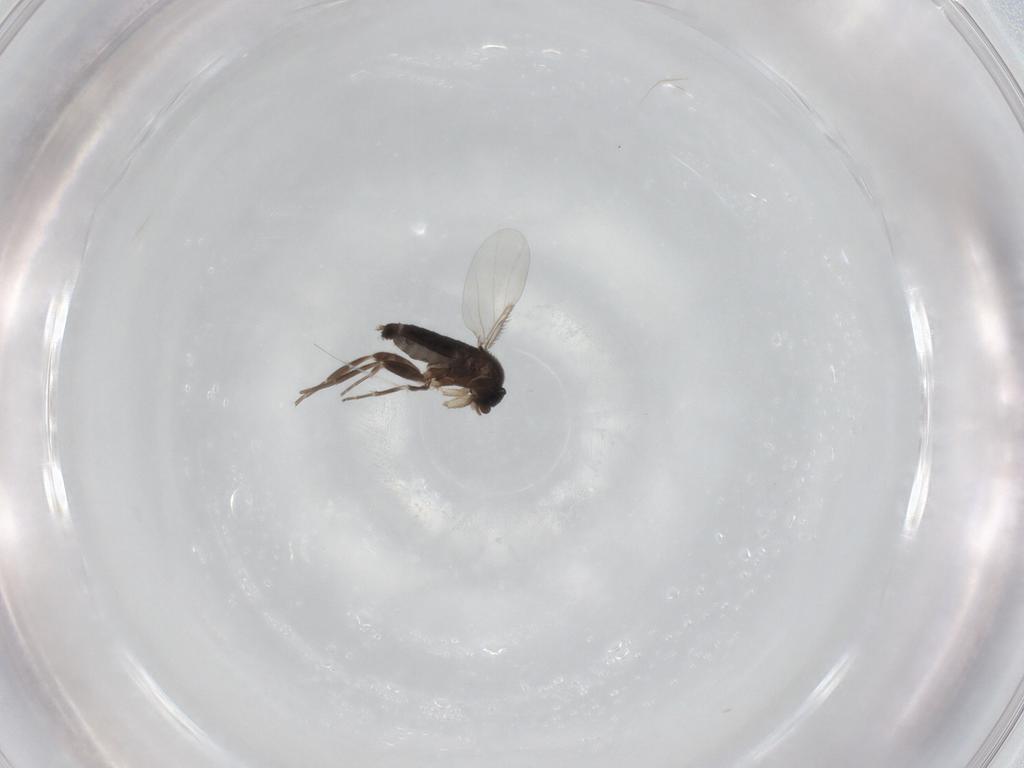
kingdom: Animalia
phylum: Arthropoda
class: Insecta
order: Diptera
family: Phoridae
